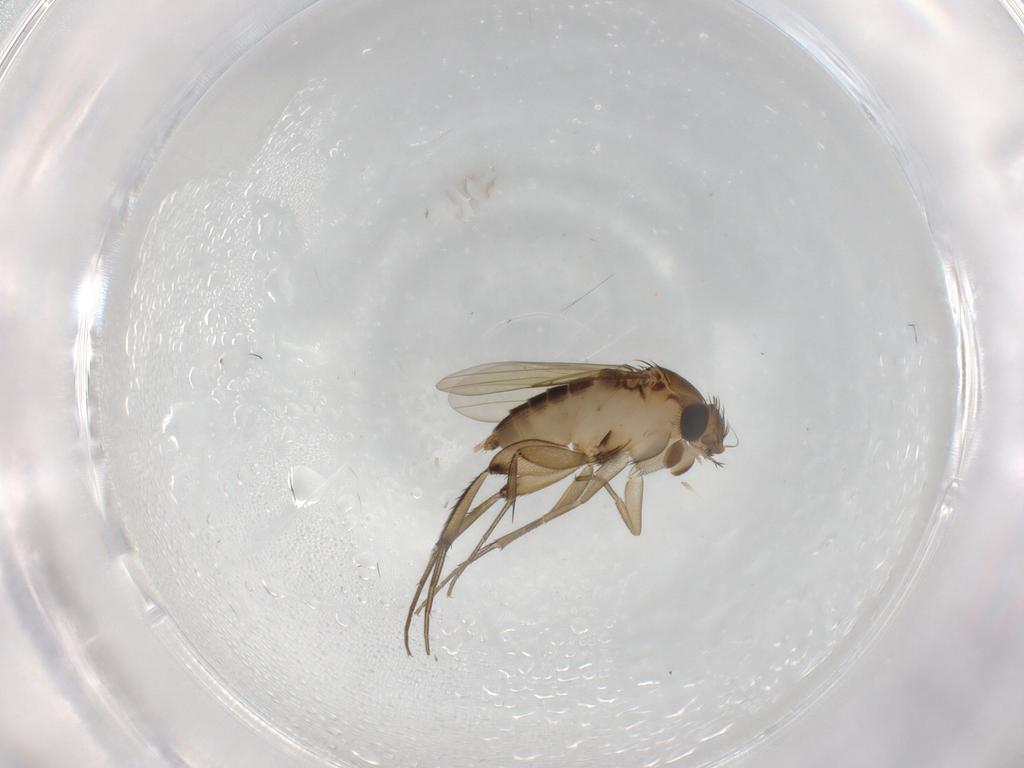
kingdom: Animalia
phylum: Arthropoda
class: Insecta
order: Diptera
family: Phoridae
